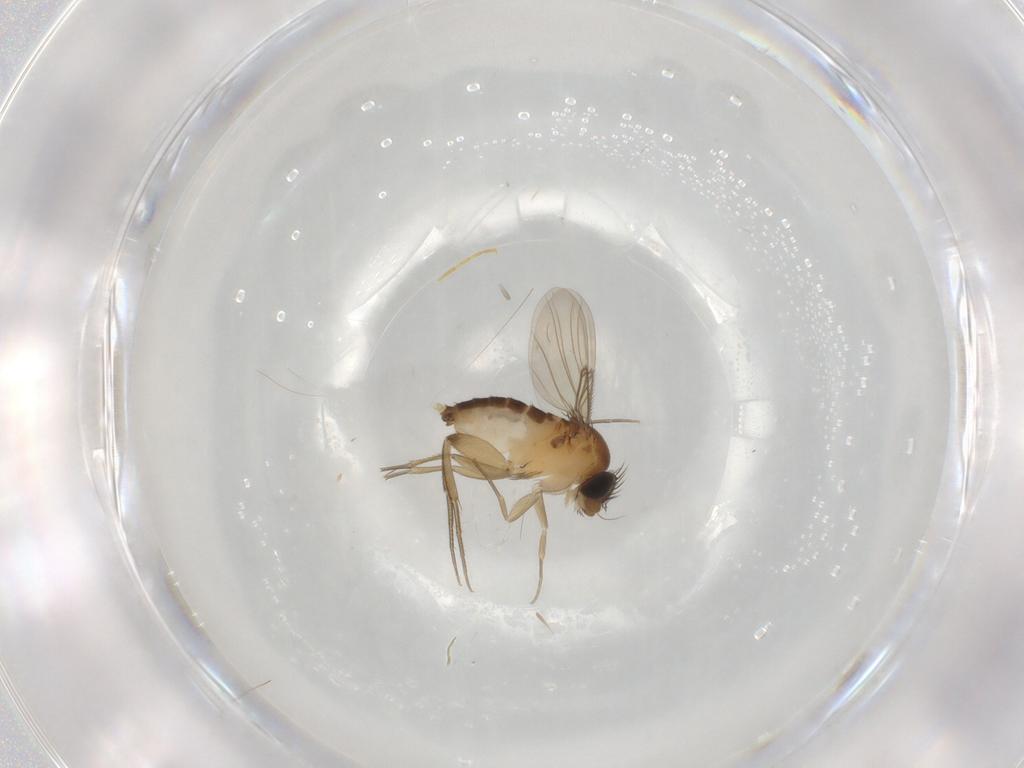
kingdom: Animalia
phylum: Arthropoda
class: Insecta
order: Diptera
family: Phoridae
